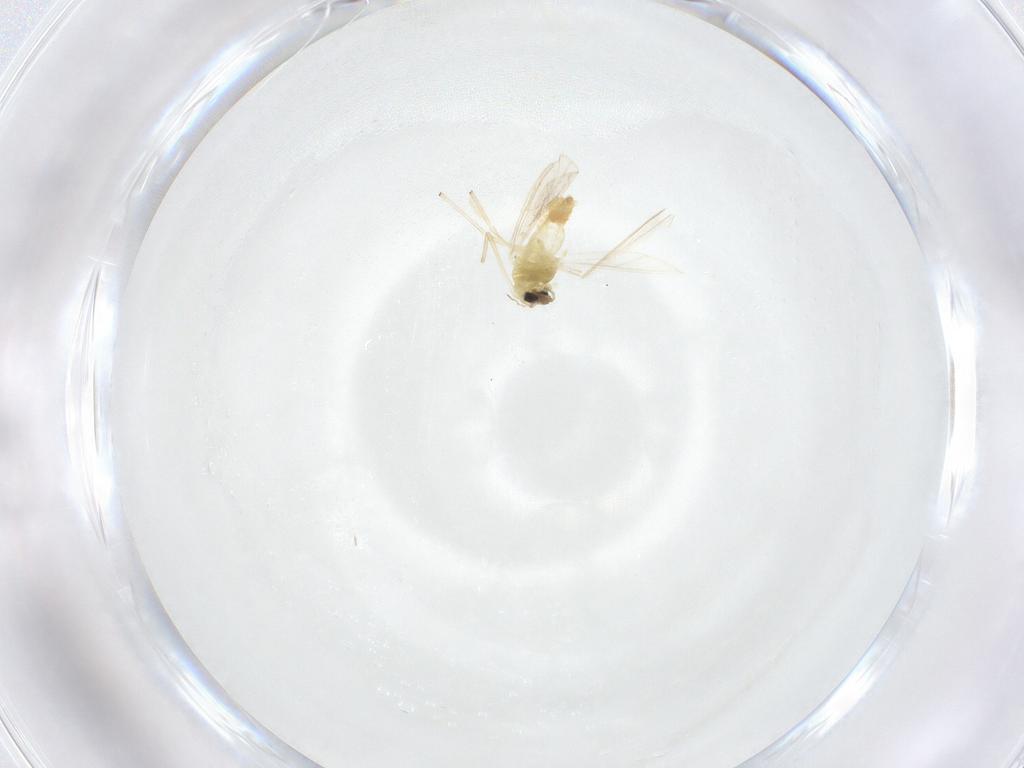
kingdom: Animalia
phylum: Arthropoda
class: Insecta
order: Diptera
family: Chironomidae
